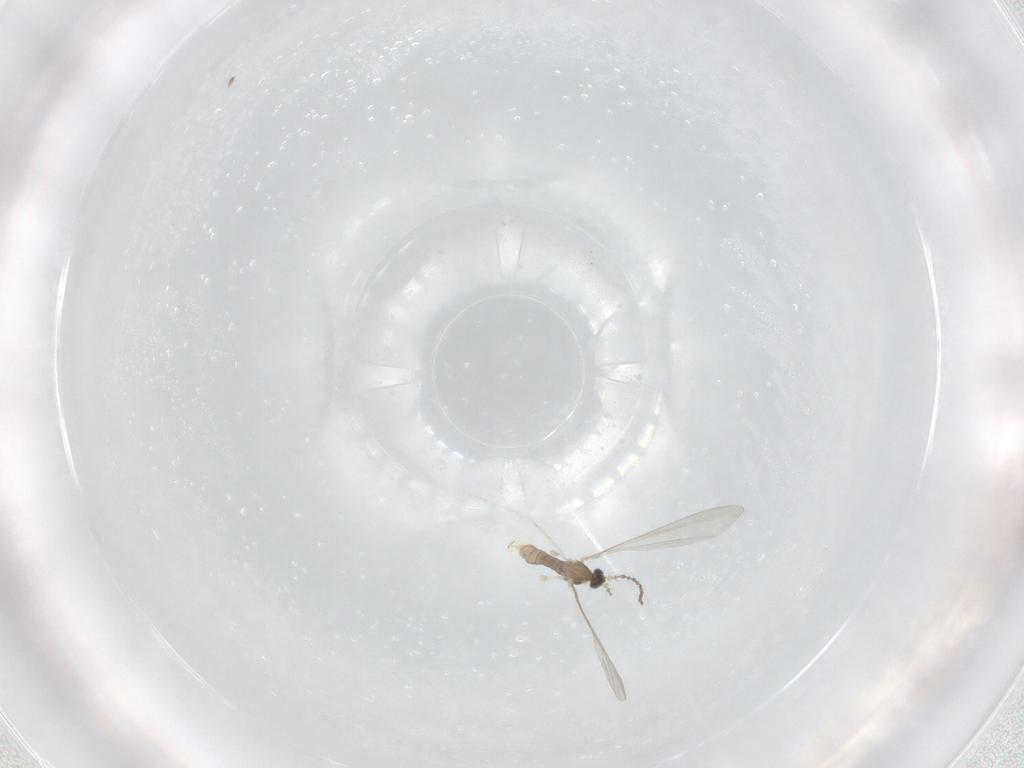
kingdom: Animalia
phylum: Arthropoda
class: Insecta
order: Diptera
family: Cecidomyiidae
